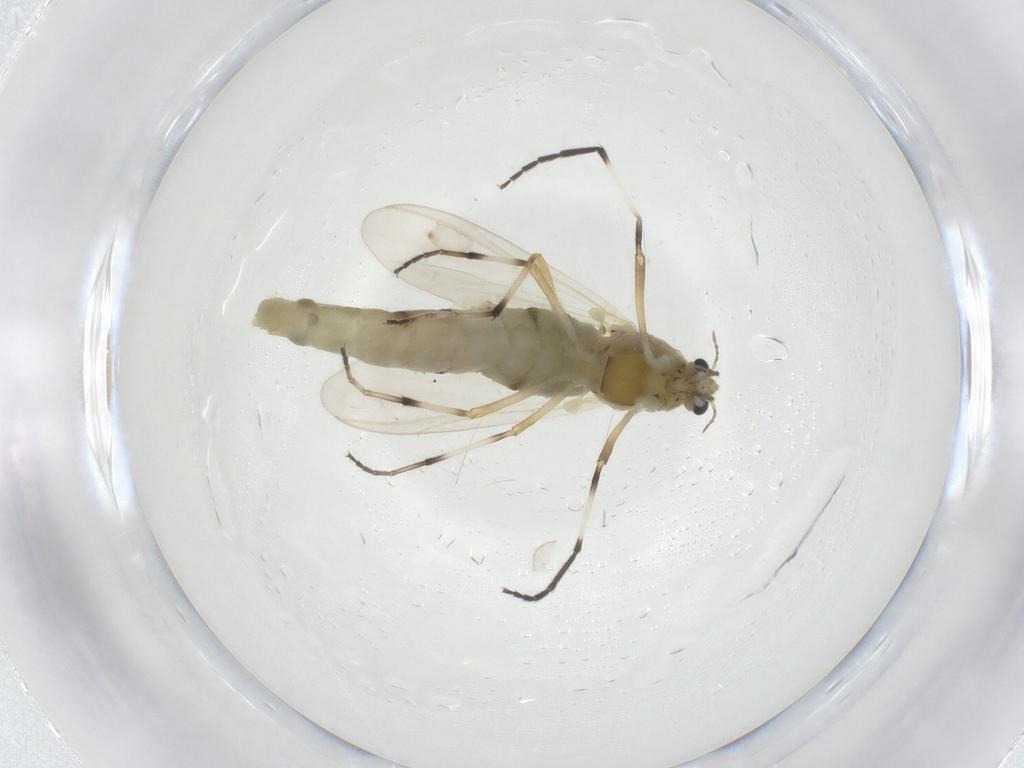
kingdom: Animalia
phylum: Arthropoda
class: Insecta
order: Diptera
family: Chironomidae
